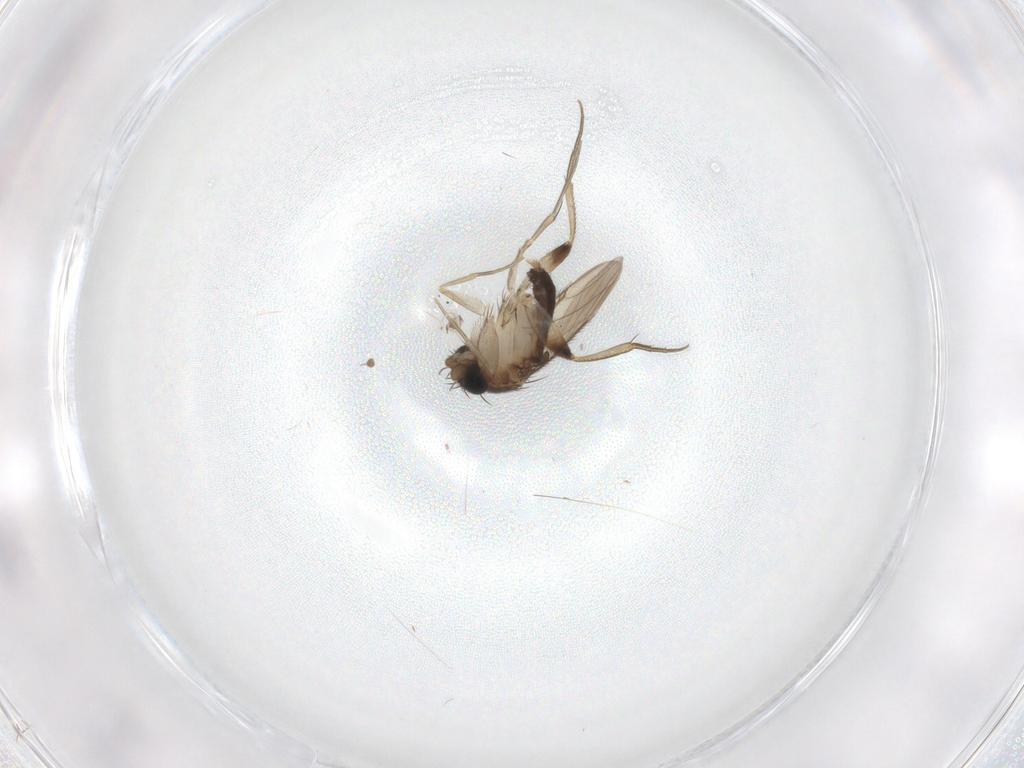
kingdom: Animalia
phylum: Arthropoda
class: Insecta
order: Diptera
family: Phoridae
